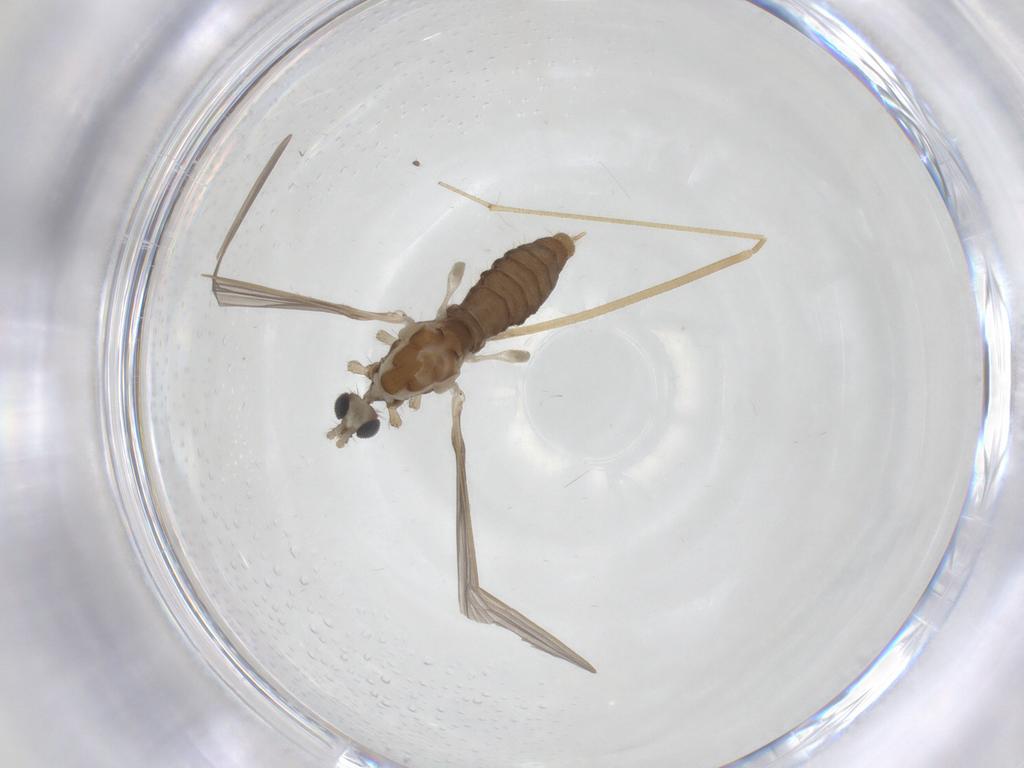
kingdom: Animalia
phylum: Arthropoda
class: Insecta
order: Diptera
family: Limoniidae
